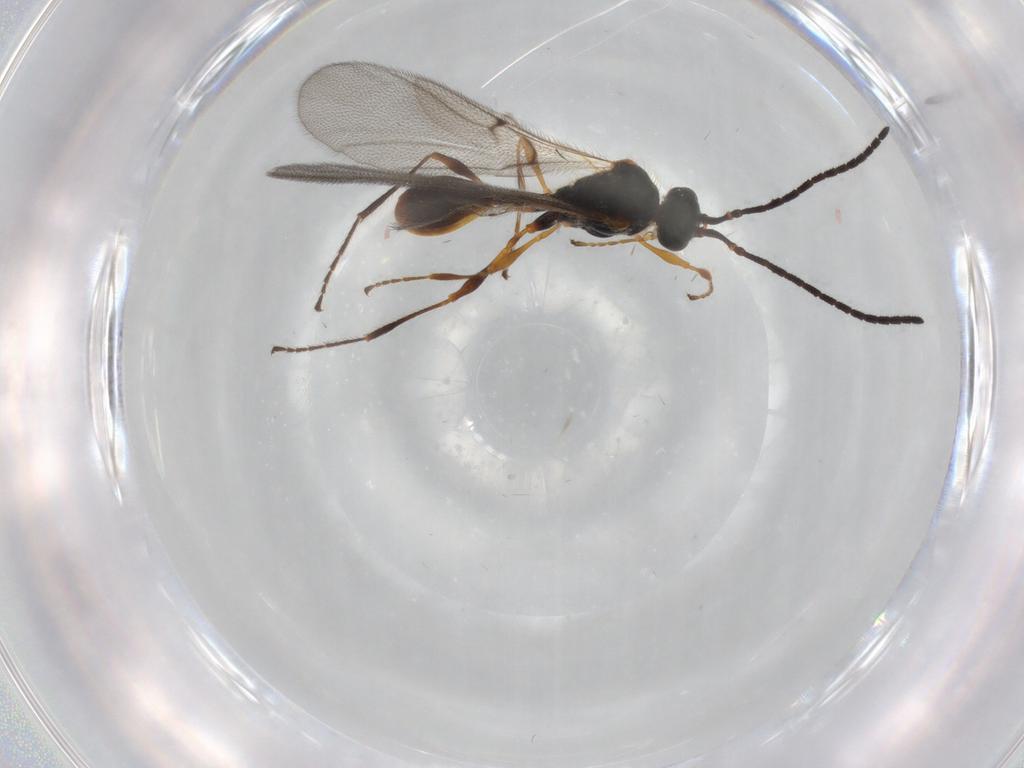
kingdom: Animalia
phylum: Arthropoda
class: Insecta
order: Hymenoptera
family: Diapriidae
